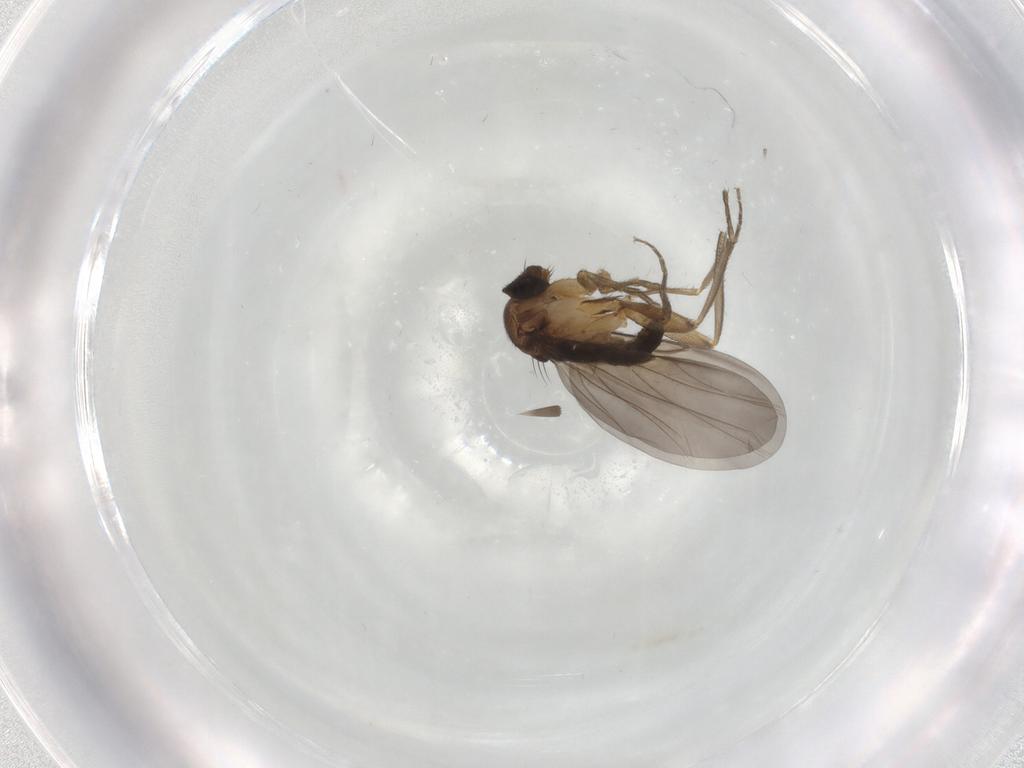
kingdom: Animalia
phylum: Arthropoda
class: Insecta
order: Diptera
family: Phoridae
